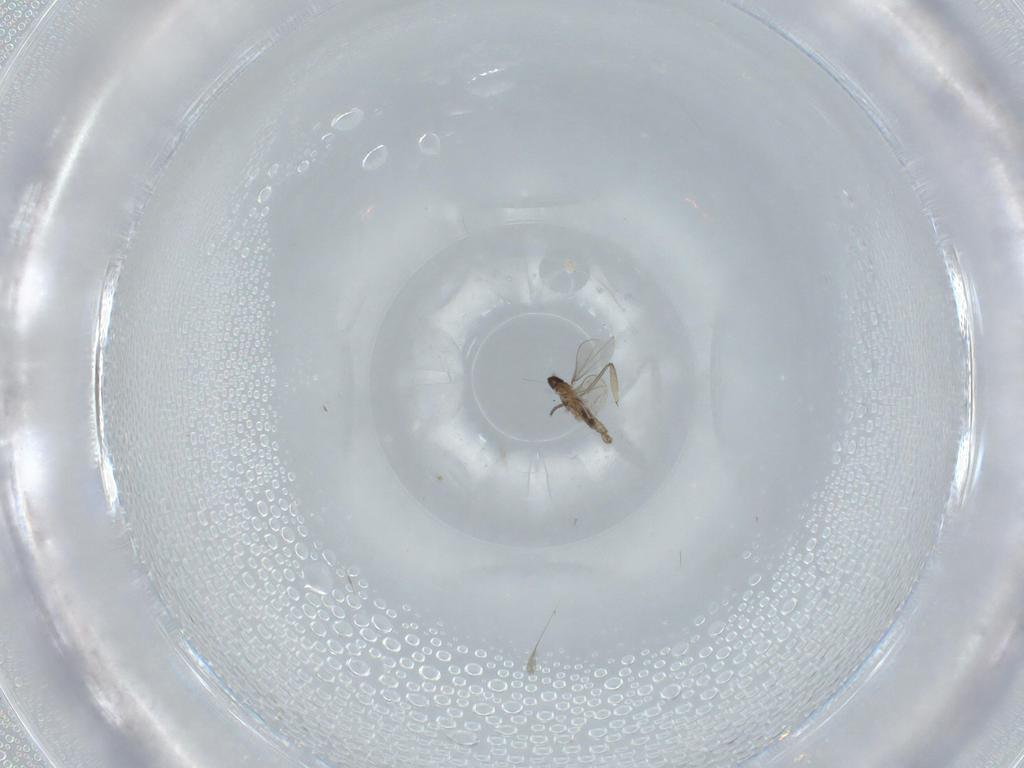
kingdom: Animalia
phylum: Arthropoda
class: Insecta
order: Diptera
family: Cecidomyiidae
